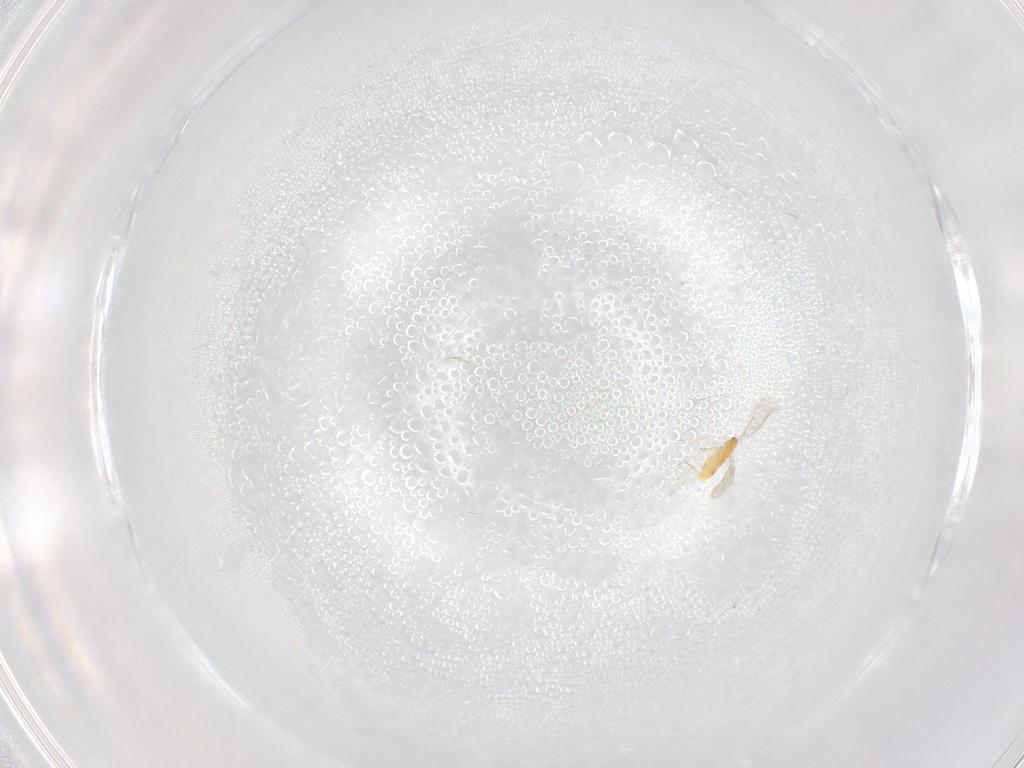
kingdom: Animalia
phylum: Arthropoda
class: Insecta
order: Hymenoptera
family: Aphelinidae
